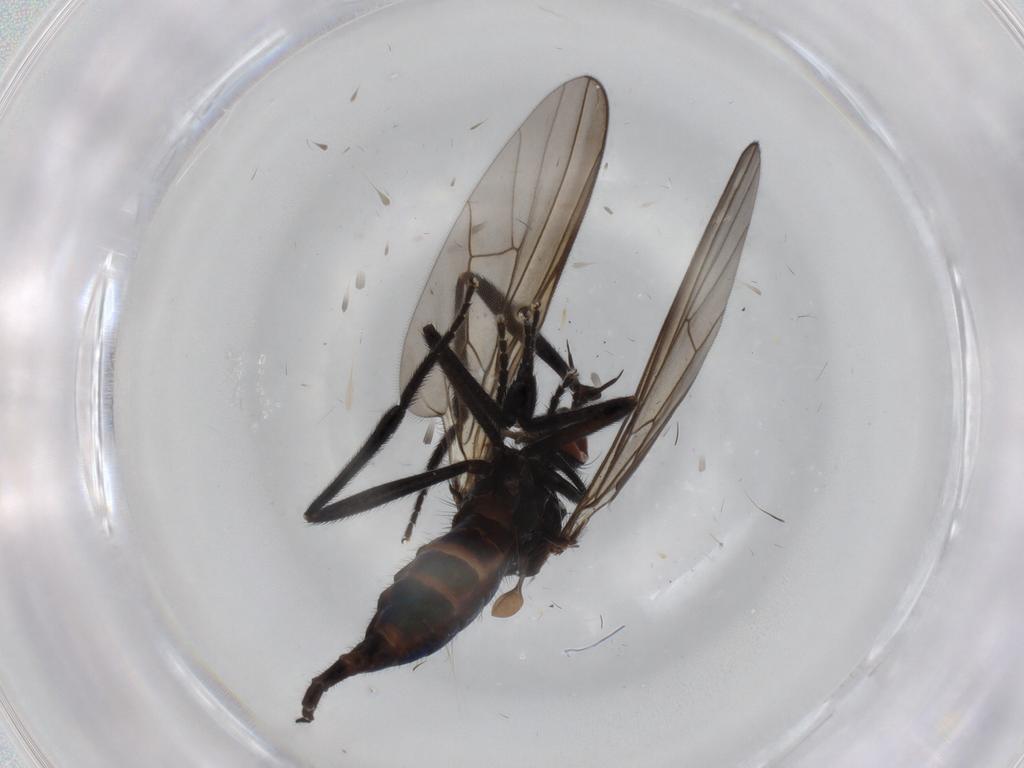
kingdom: Animalia
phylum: Arthropoda
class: Insecta
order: Diptera
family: Empididae
